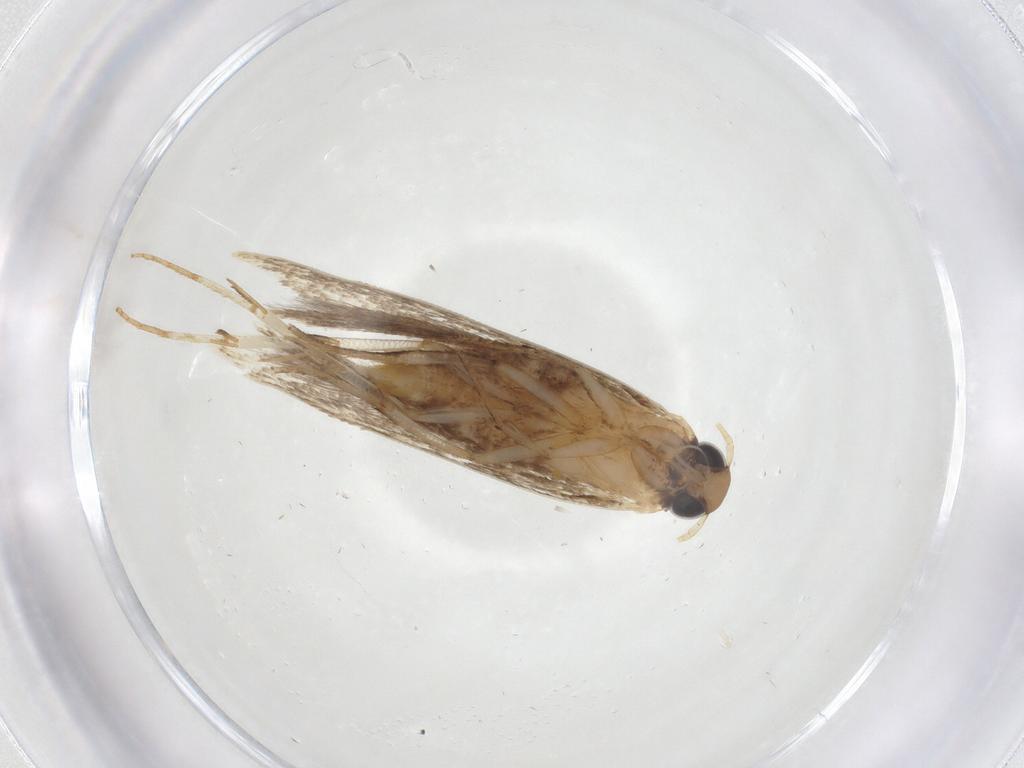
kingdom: Animalia
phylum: Arthropoda
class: Insecta
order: Lepidoptera
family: Gelechiidae
